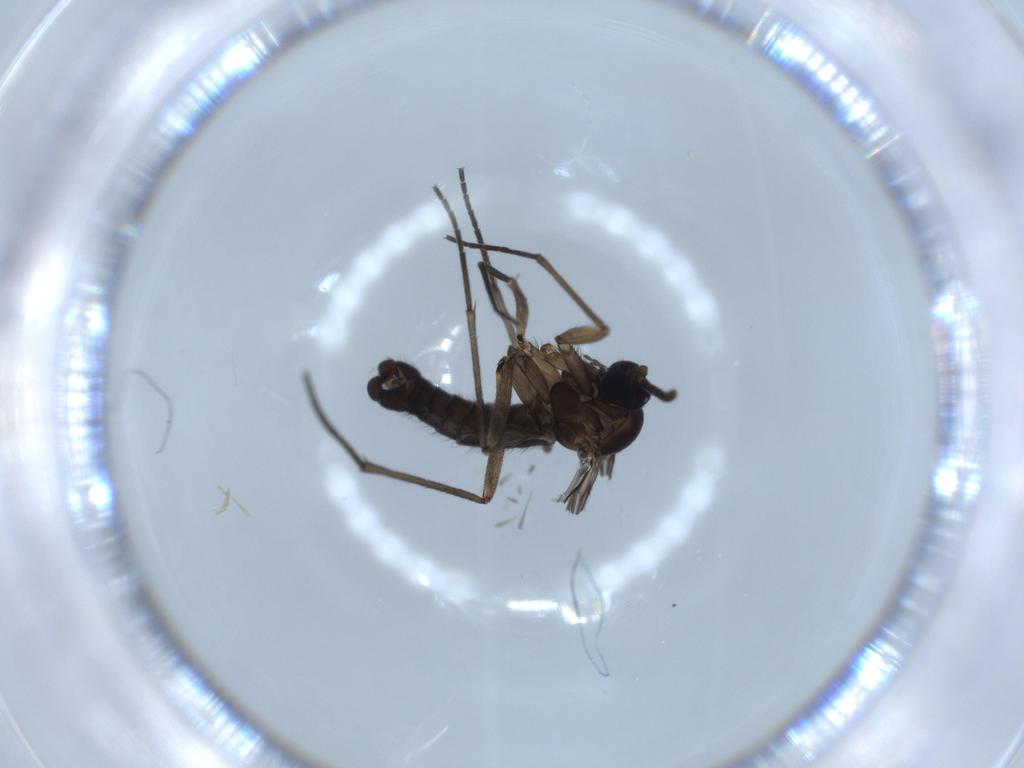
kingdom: Animalia
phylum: Arthropoda
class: Insecta
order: Diptera
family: Sciaridae
